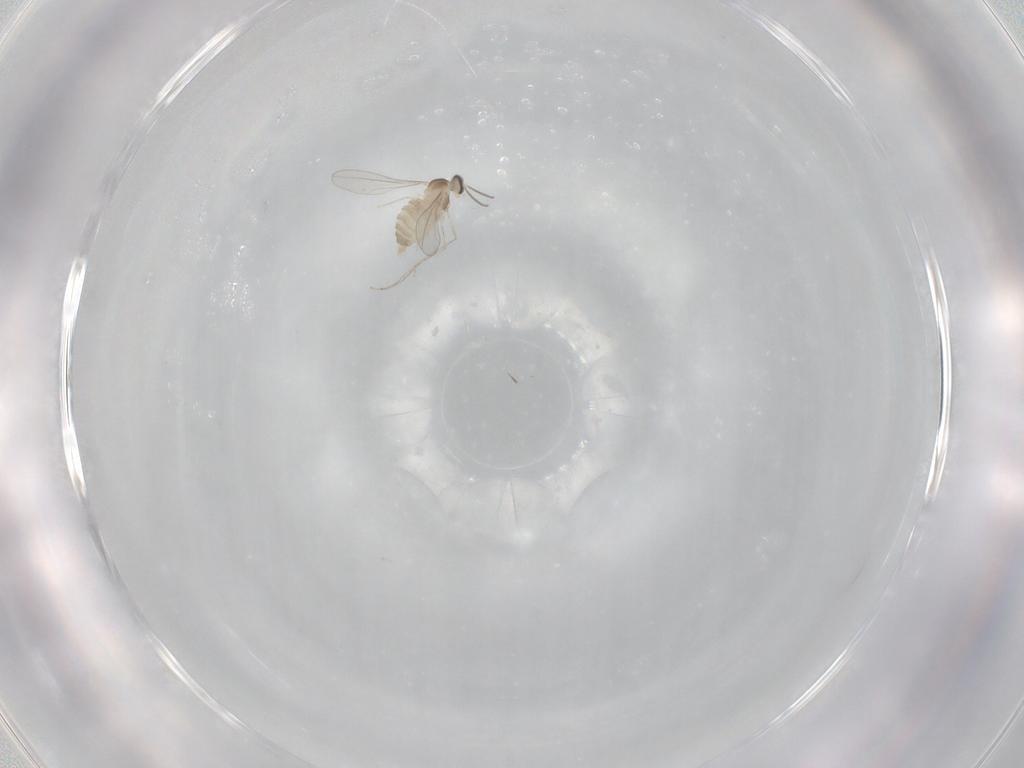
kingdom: Animalia
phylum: Arthropoda
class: Insecta
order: Diptera
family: Cecidomyiidae
